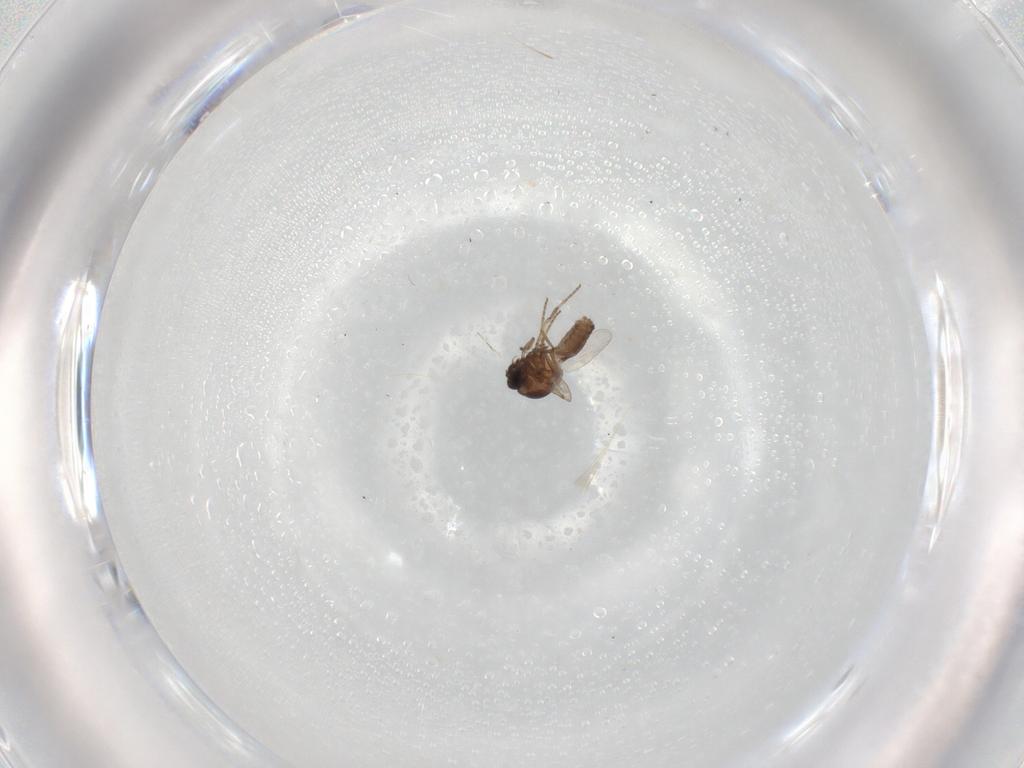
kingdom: Animalia
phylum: Arthropoda
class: Insecta
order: Diptera
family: Ceratopogonidae
